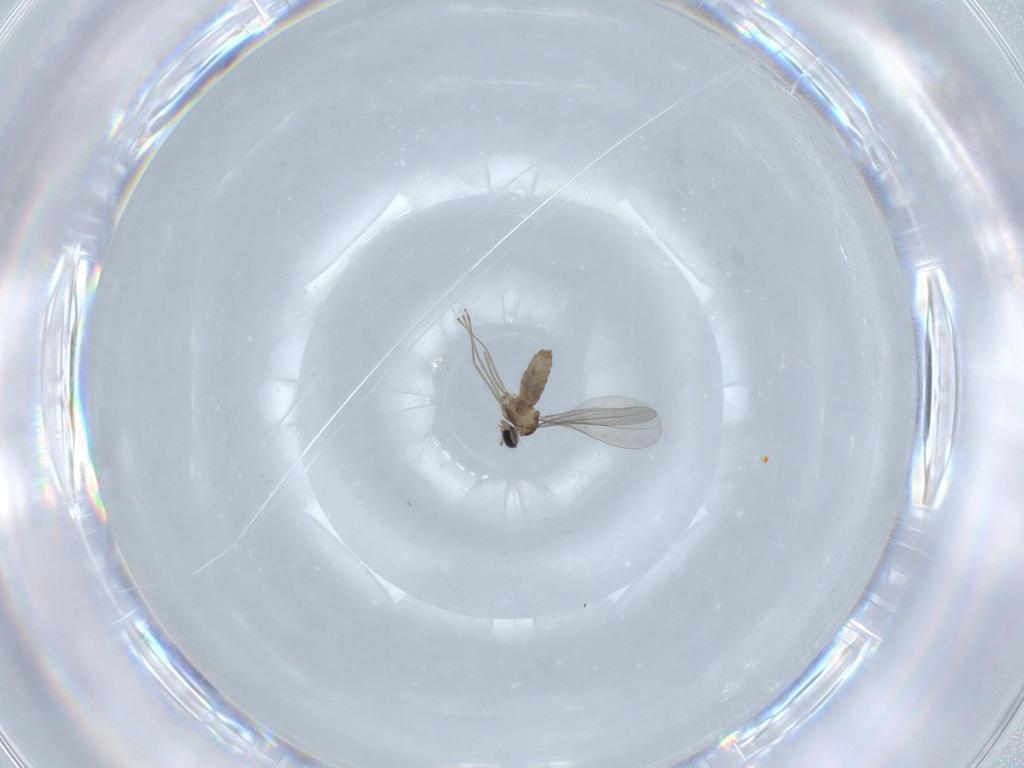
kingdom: Animalia
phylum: Arthropoda
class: Insecta
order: Diptera
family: Cecidomyiidae
